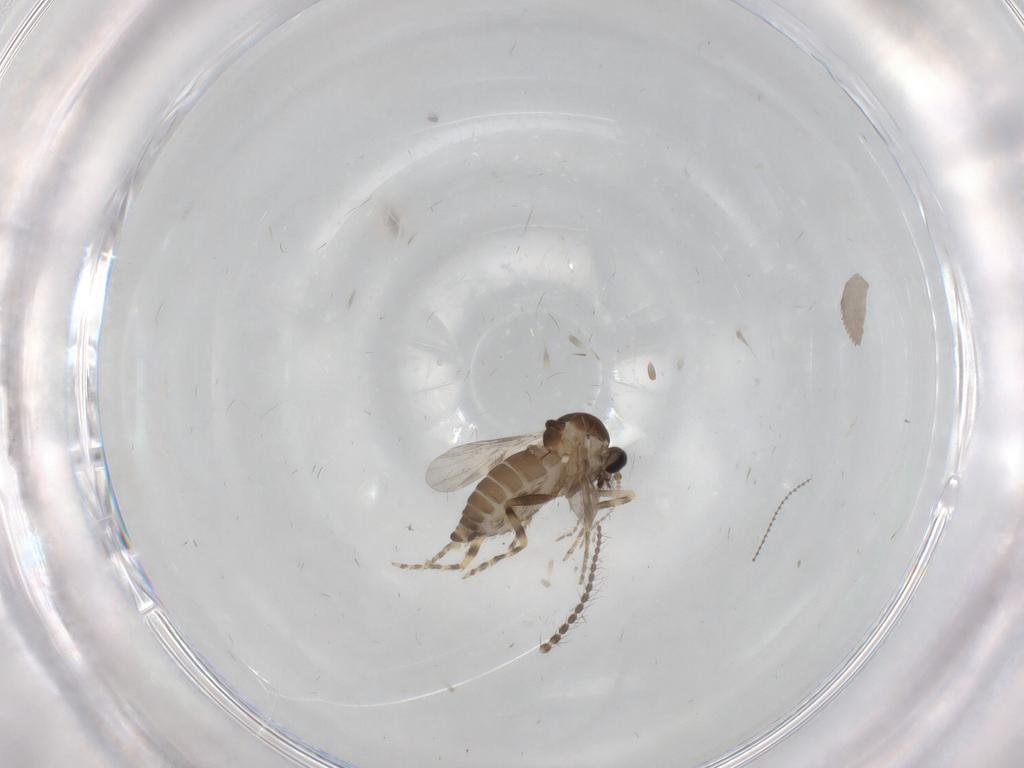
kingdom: Animalia
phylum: Arthropoda
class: Insecta
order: Diptera
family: Ceratopogonidae
